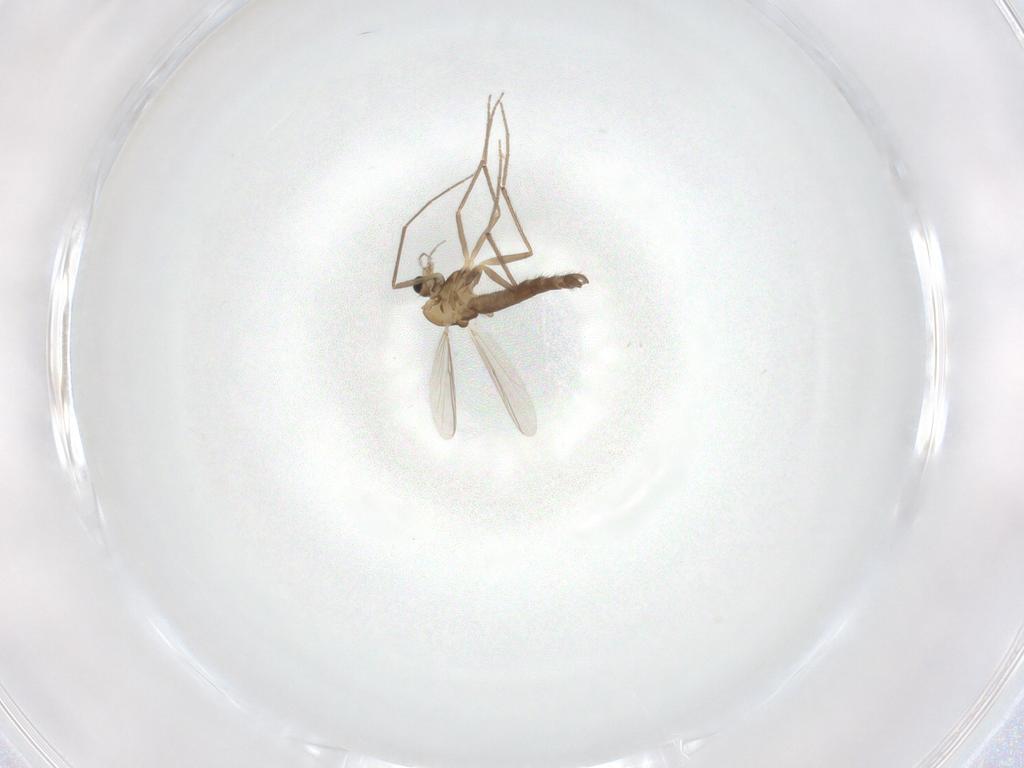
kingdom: Animalia
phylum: Arthropoda
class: Insecta
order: Diptera
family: Chironomidae
